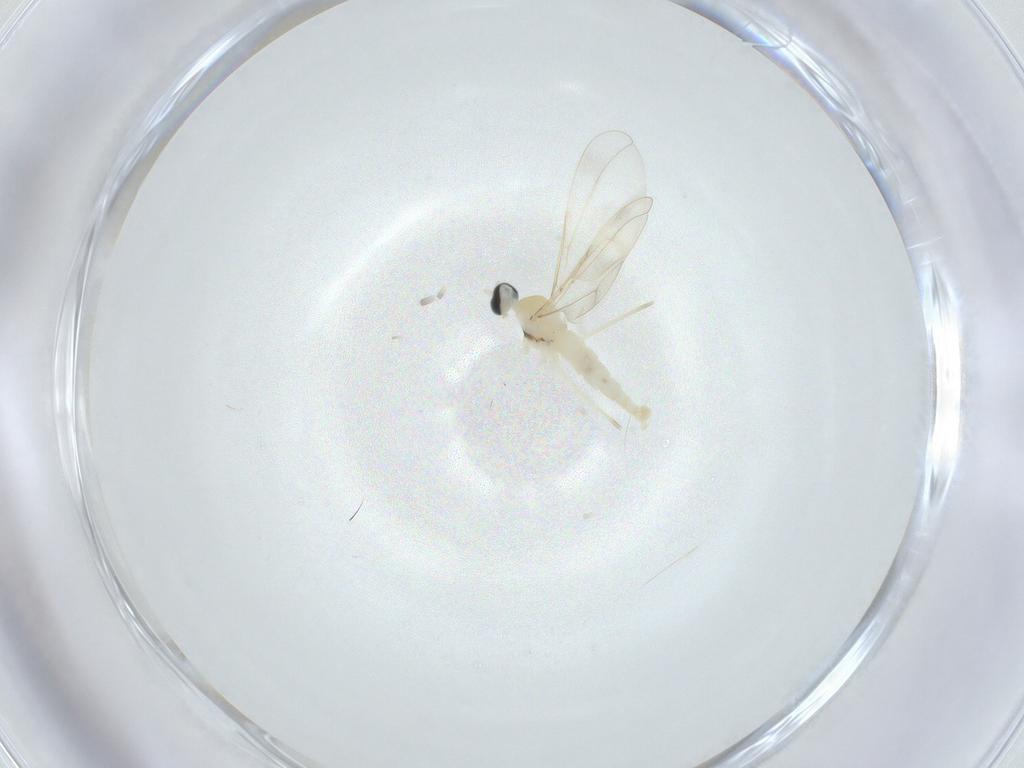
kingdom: Animalia
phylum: Arthropoda
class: Insecta
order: Diptera
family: Cecidomyiidae
